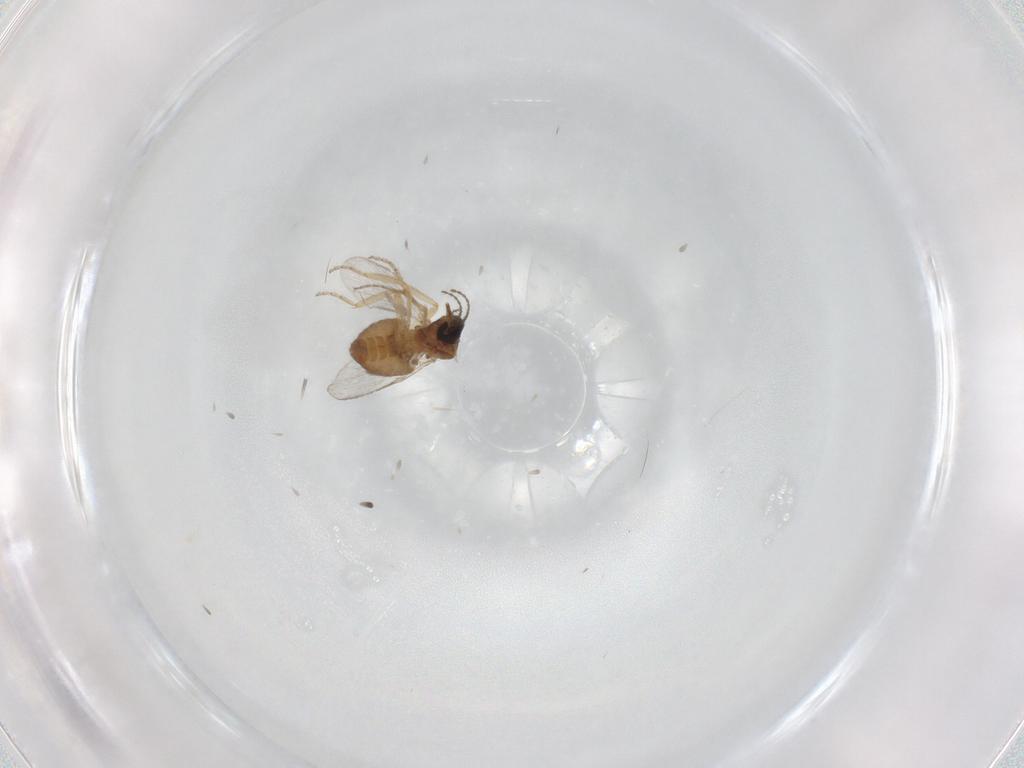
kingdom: Animalia
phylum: Arthropoda
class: Insecta
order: Diptera
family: Ceratopogonidae
